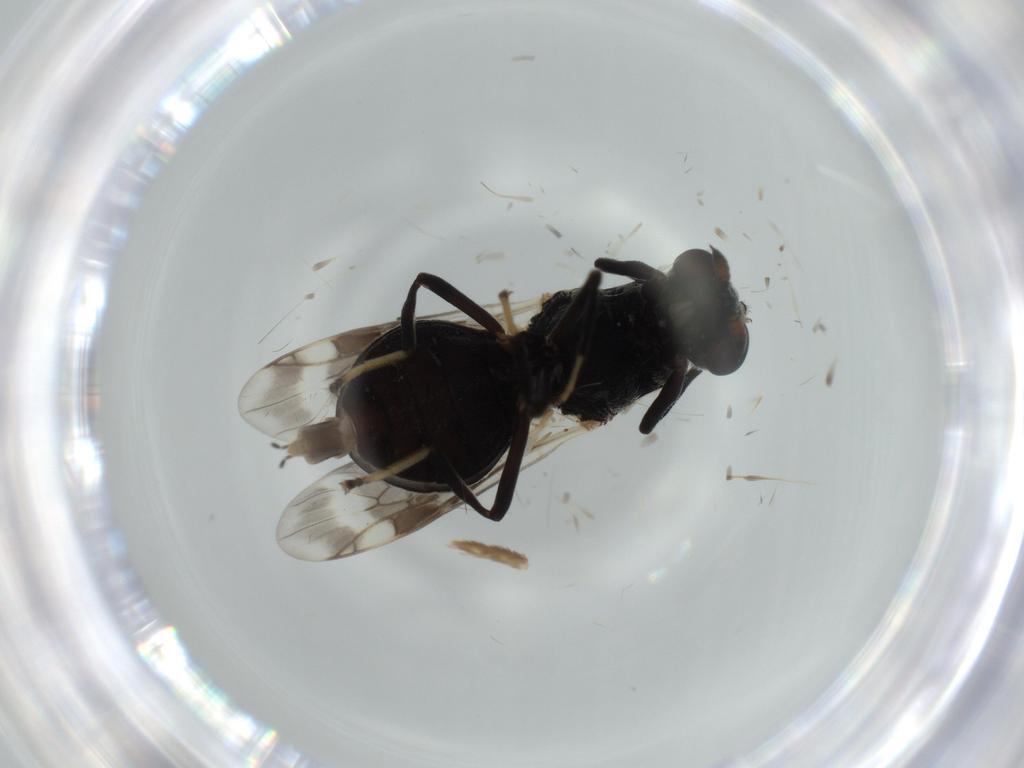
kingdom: Animalia
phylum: Arthropoda
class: Insecta
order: Diptera
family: Stratiomyidae
